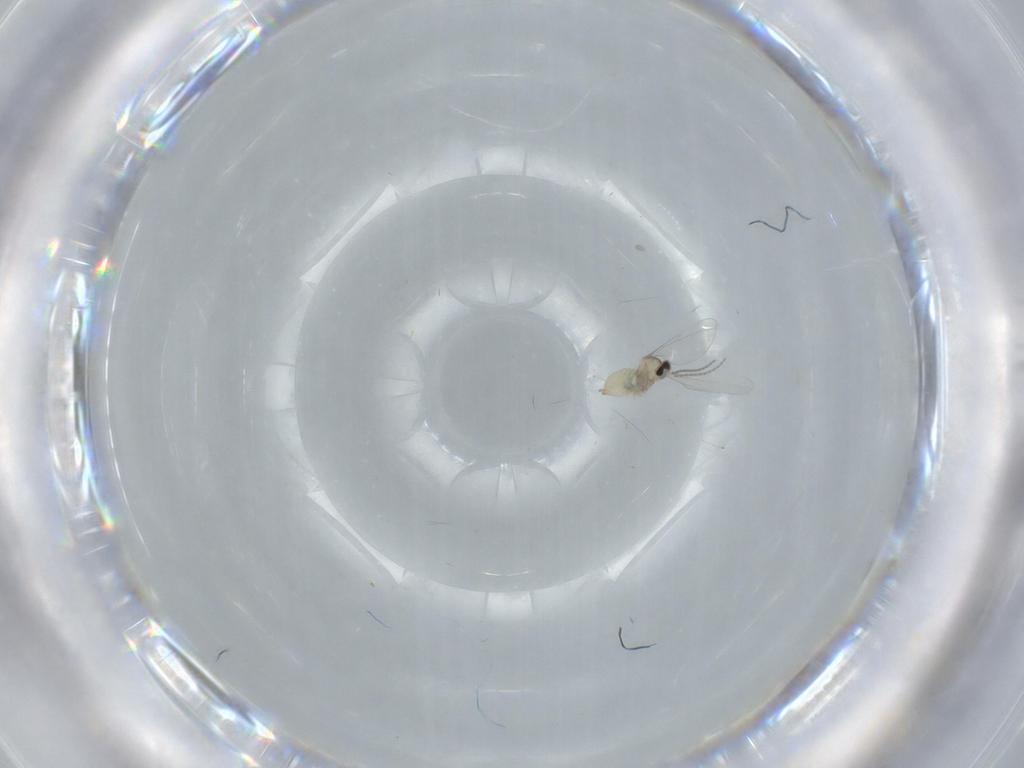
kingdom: Animalia
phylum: Arthropoda
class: Insecta
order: Diptera
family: Cecidomyiidae
